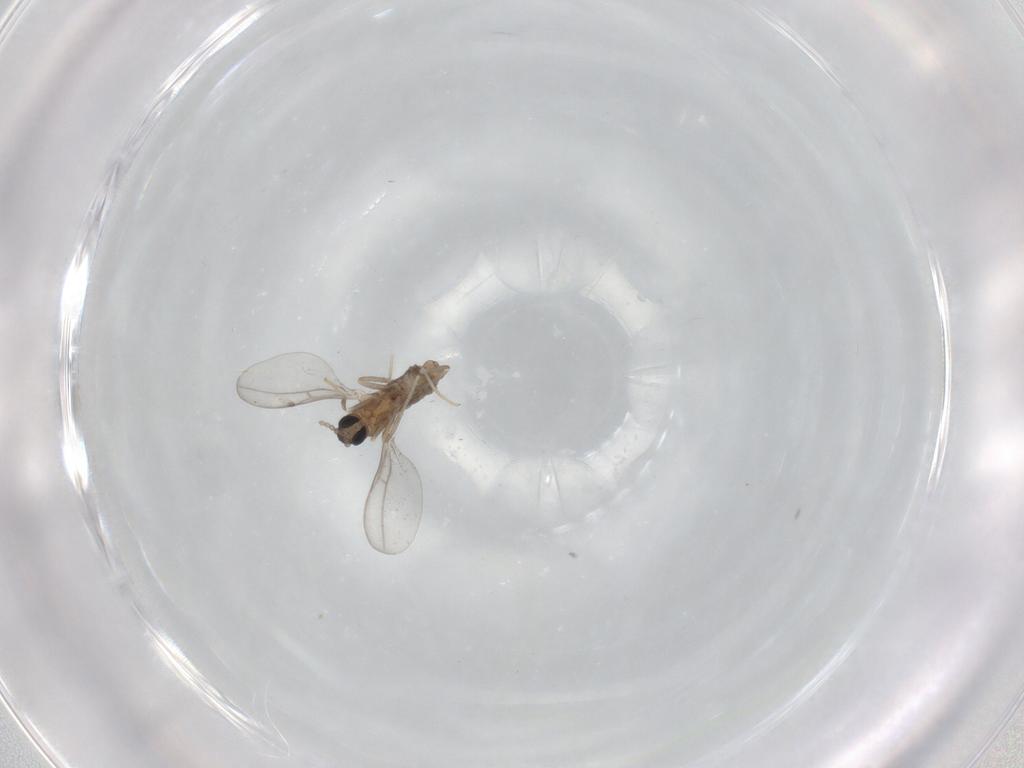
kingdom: Animalia
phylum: Arthropoda
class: Insecta
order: Diptera
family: Cecidomyiidae
